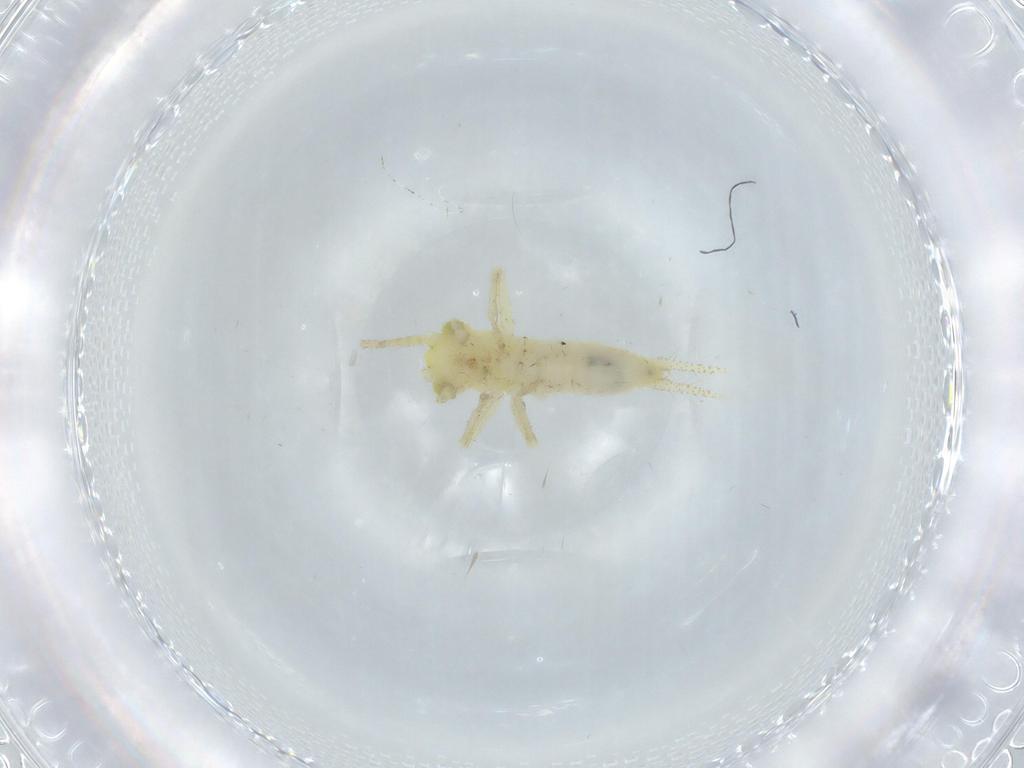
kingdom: Animalia
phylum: Arthropoda
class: Insecta
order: Orthoptera
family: Trigonidiidae
